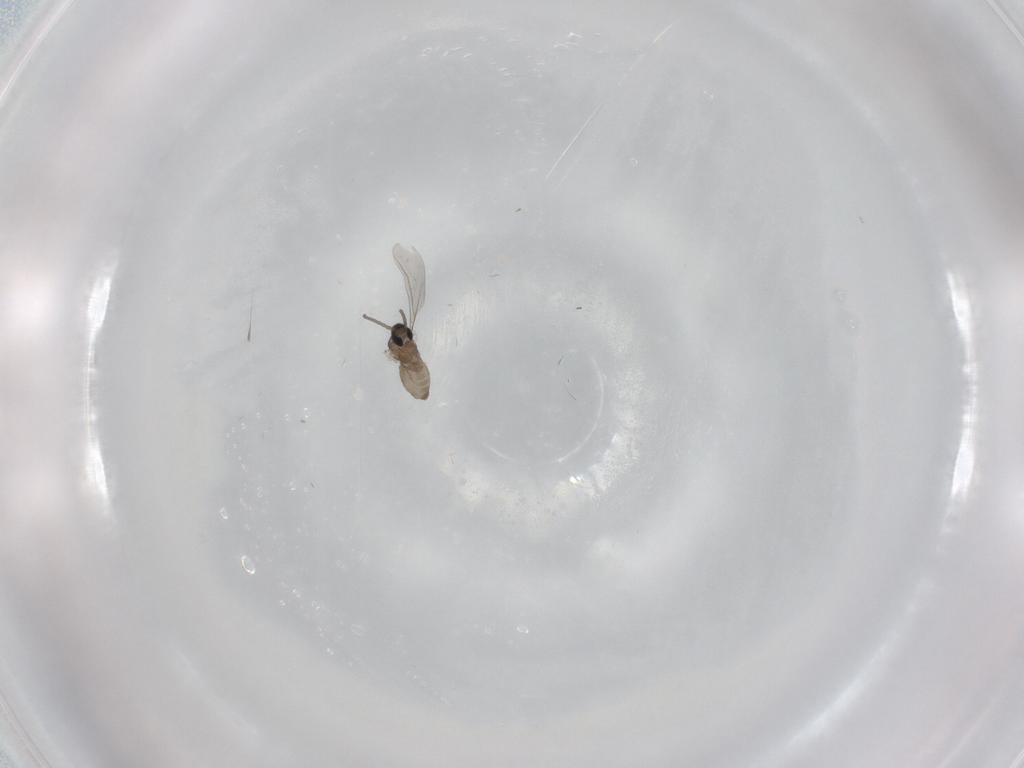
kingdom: Animalia
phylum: Arthropoda
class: Insecta
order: Diptera
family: Cecidomyiidae
